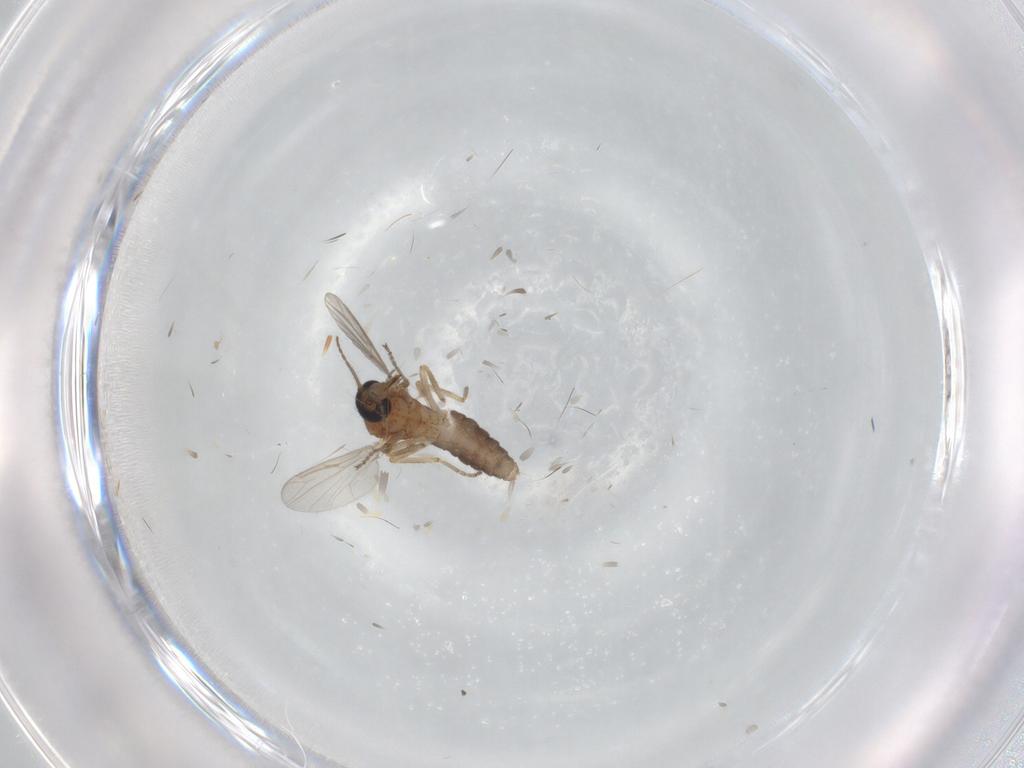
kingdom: Animalia
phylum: Arthropoda
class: Insecta
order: Diptera
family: Ceratopogonidae
